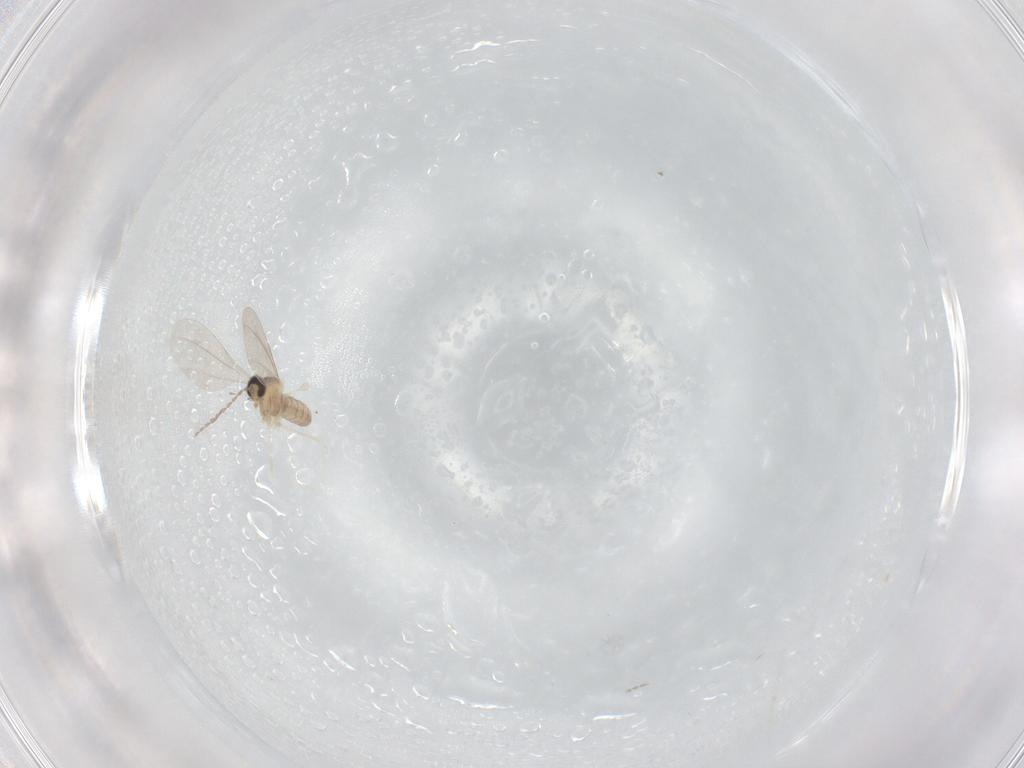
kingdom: Animalia
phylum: Arthropoda
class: Insecta
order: Diptera
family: Cecidomyiidae
